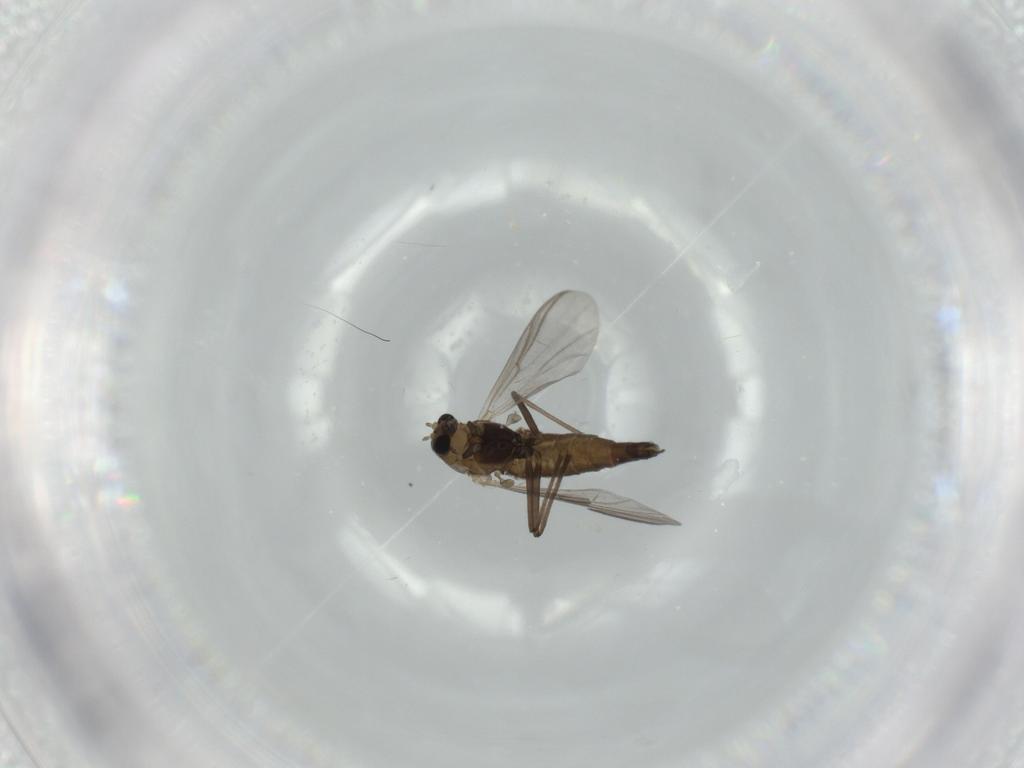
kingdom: Animalia
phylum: Arthropoda
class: Insecta
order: Diptera
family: Chironomidae
